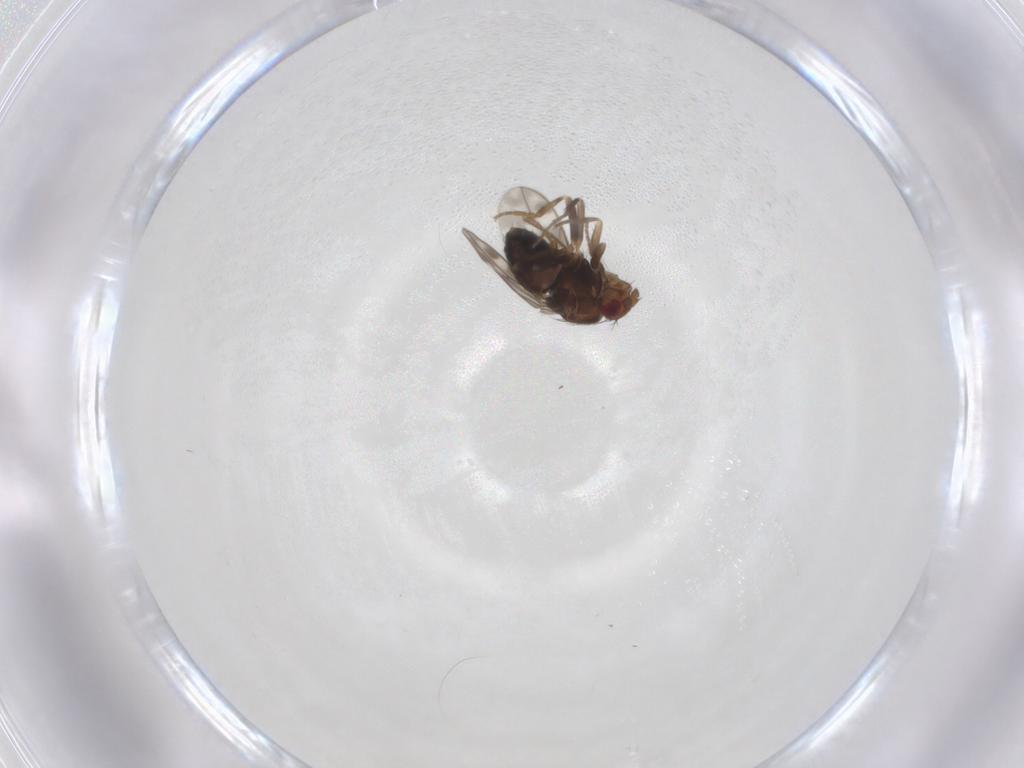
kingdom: Animalia
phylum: Arthropoda
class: Insecta
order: Diptera
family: Sphaeroceridae
